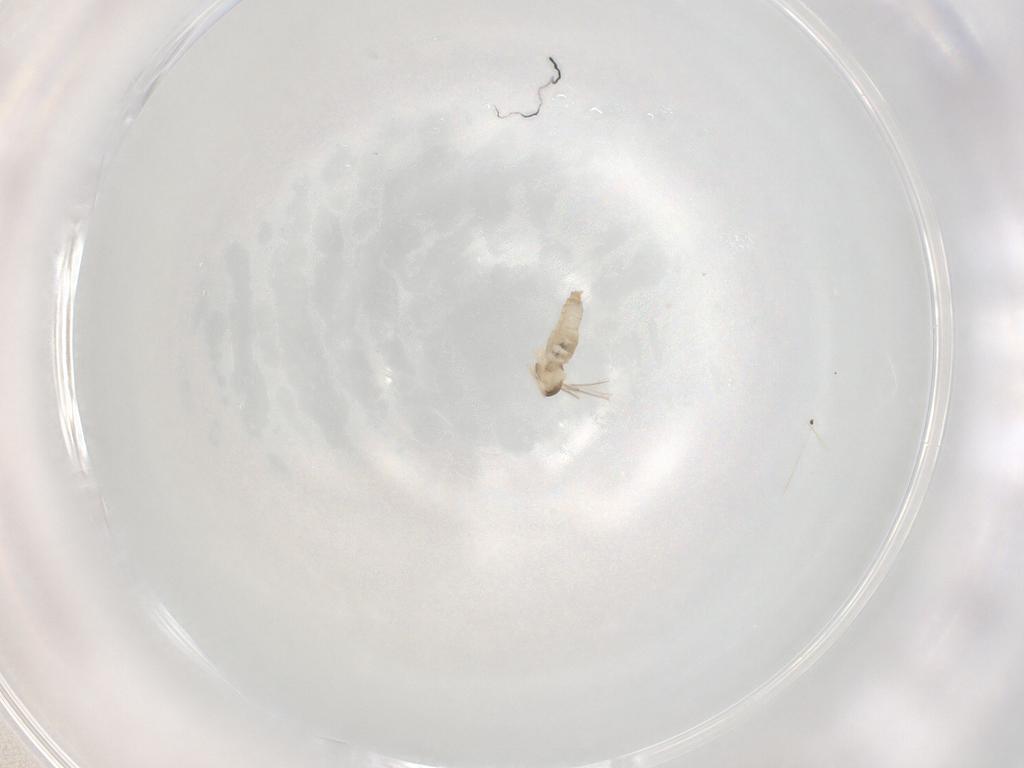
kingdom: Animalia
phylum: Arthropoda
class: Insecta
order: Diptera
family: Cecidomyiidae
